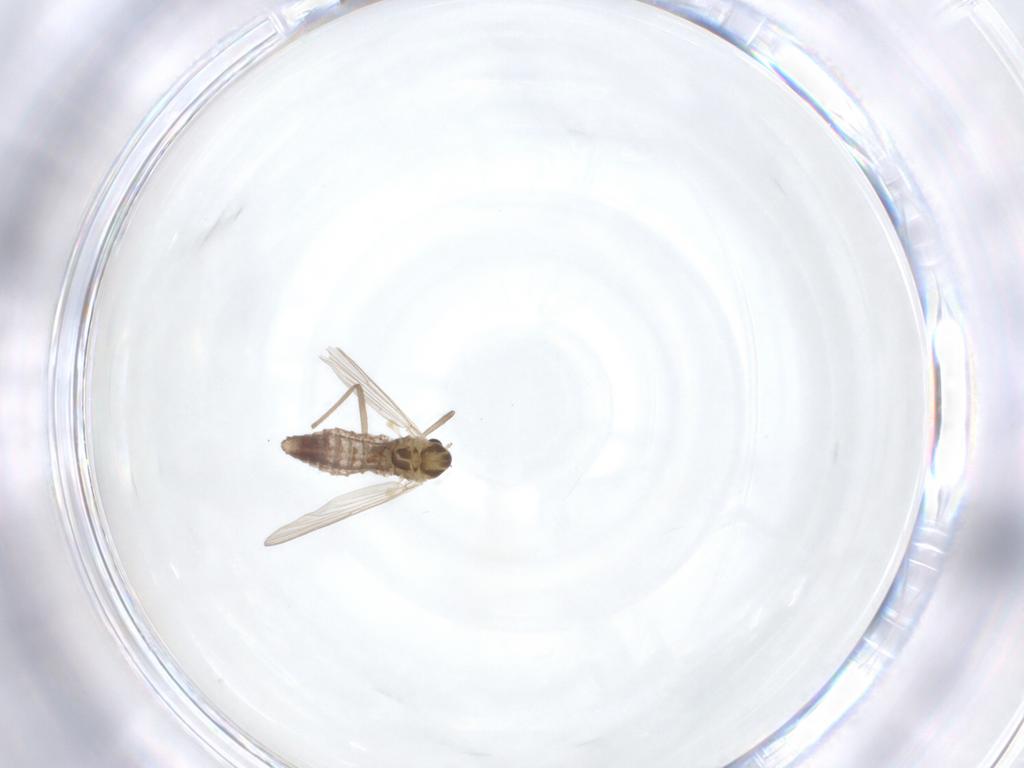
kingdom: Animalia
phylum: Arthropoda
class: Insecta
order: Diptera
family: Chironomidae
